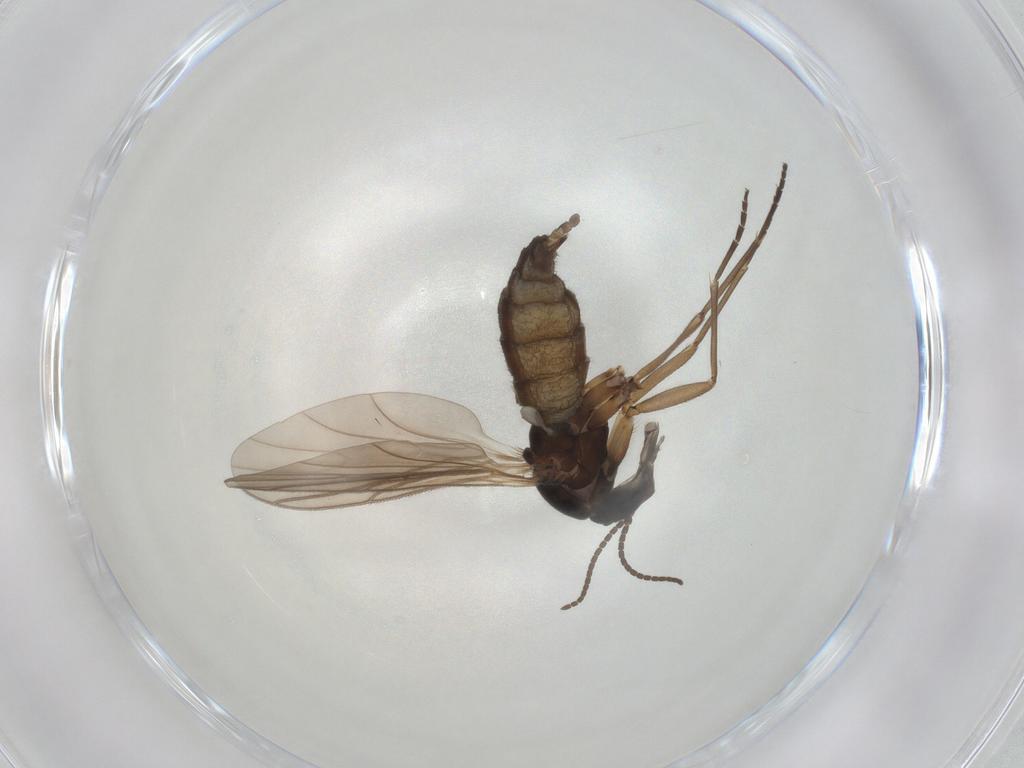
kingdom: Animalia
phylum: Arthropoda
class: Insecta
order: Diptera
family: Sciaridae
